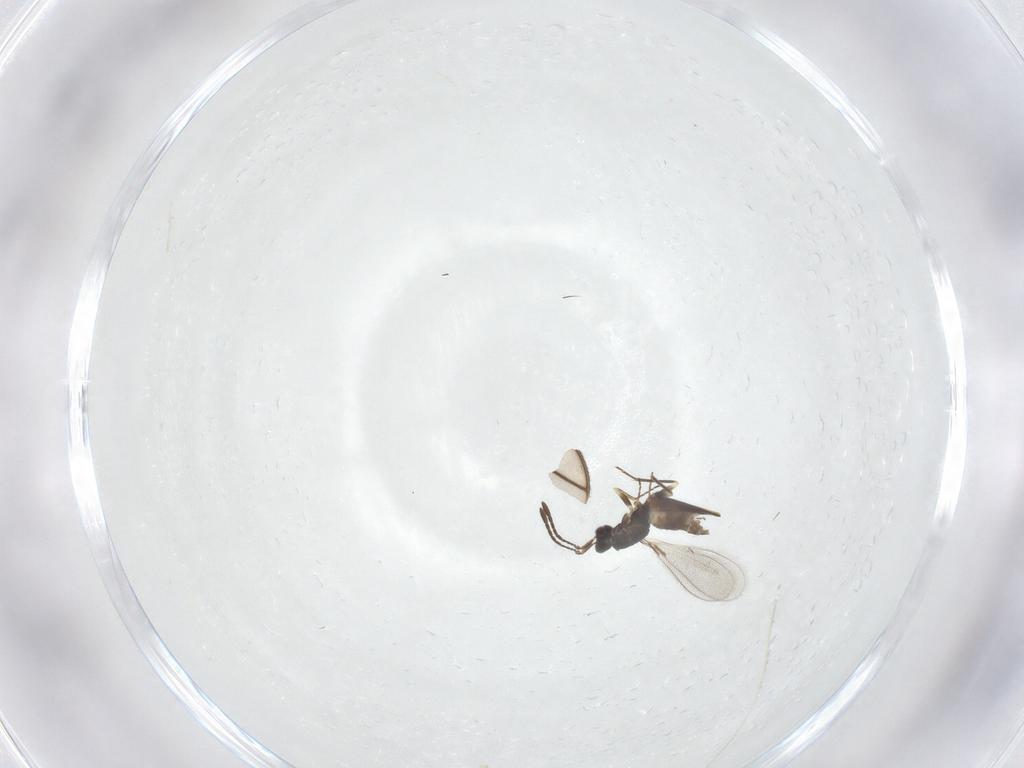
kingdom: Animalia
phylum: Arthropoda
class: Insecta
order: Hymenoptera
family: Mymaridae
